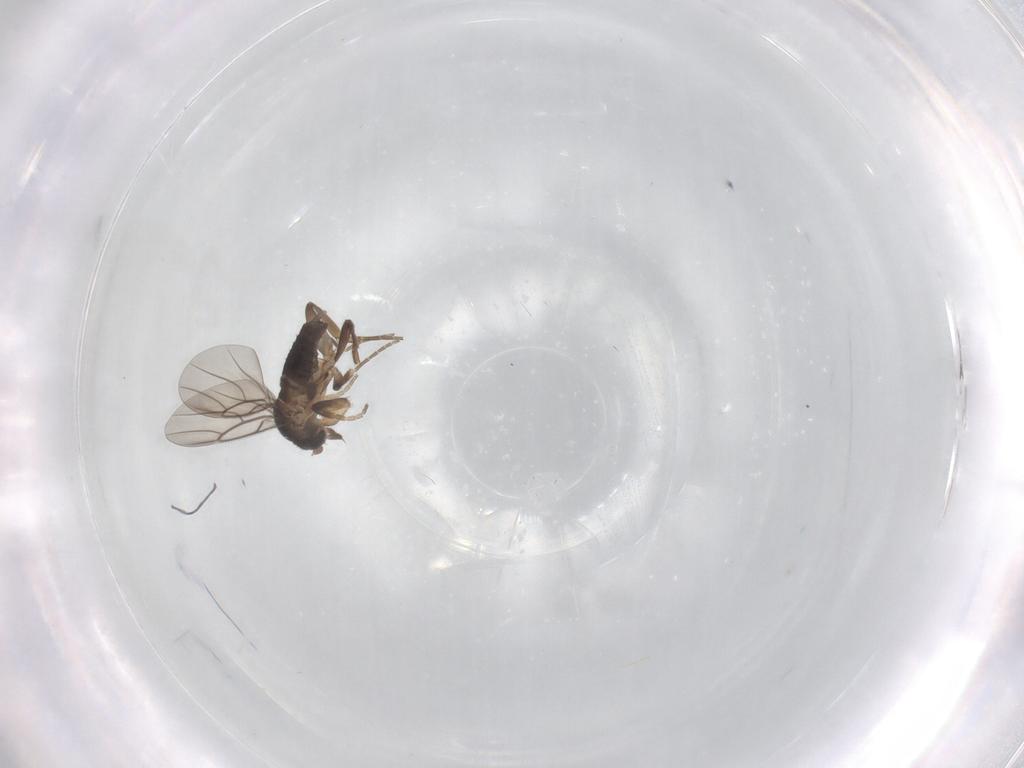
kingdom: Animalia
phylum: Arthropoda
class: Insecta
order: Diptera
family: Phoridae
